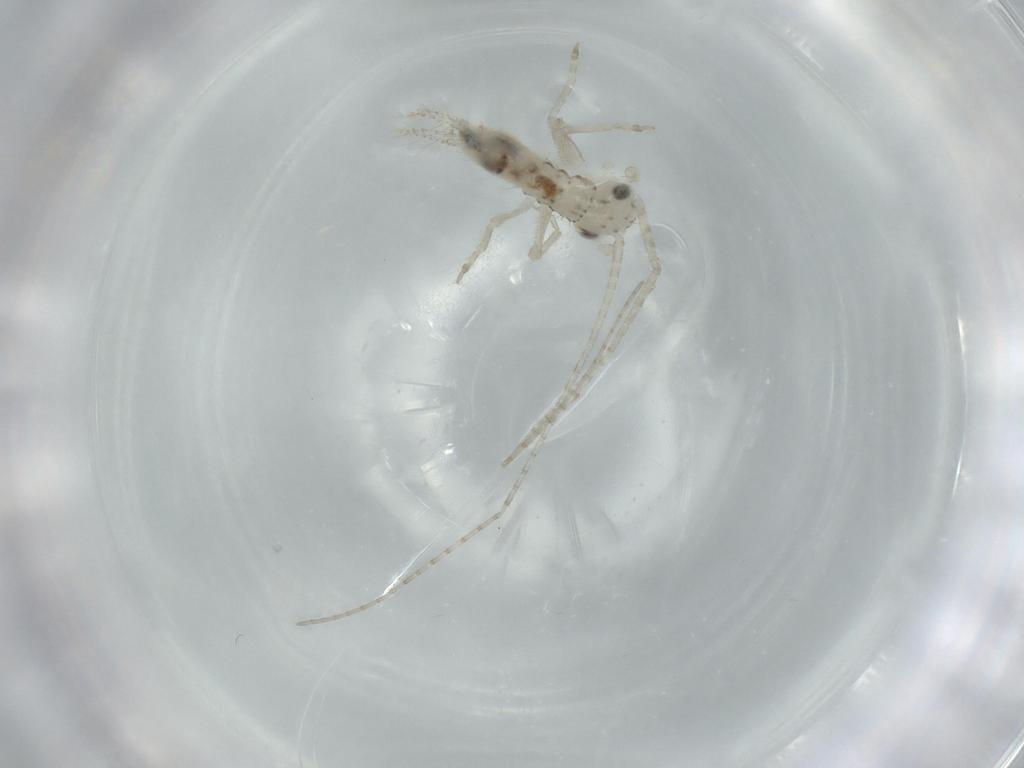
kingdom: Animalia
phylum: Arthropoda
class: Insecta
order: Orthoptera
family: Trigonidiidae
